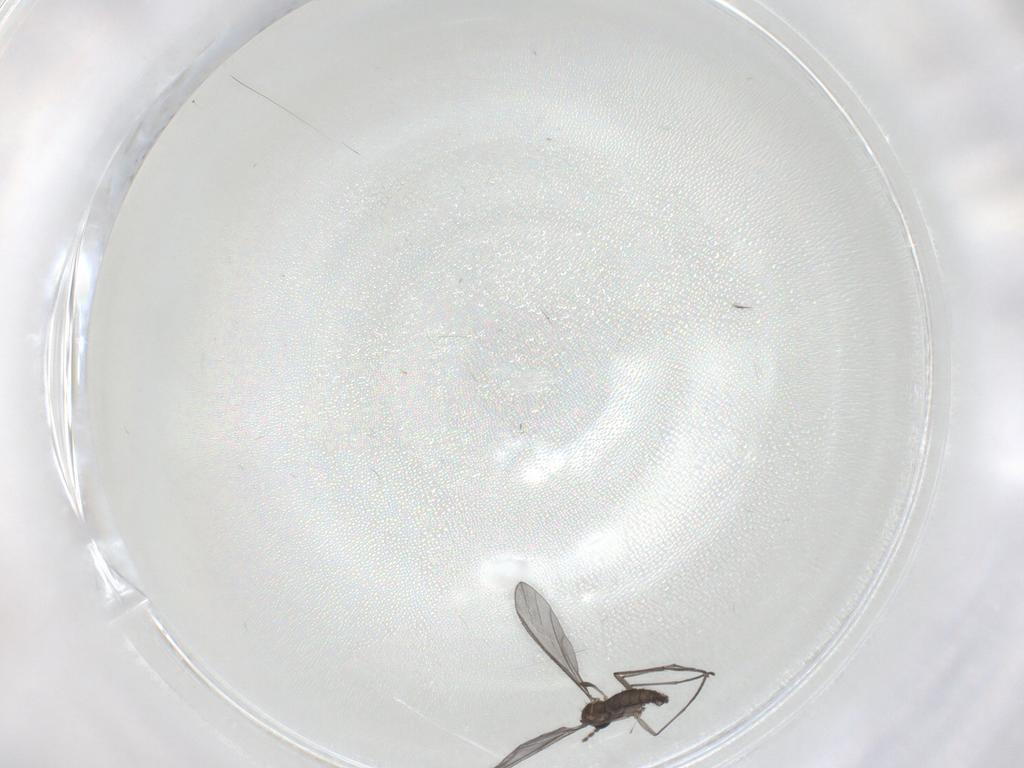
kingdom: Animalia
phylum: Arthropoda
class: Insecta
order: Diptera
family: Sciaridae
